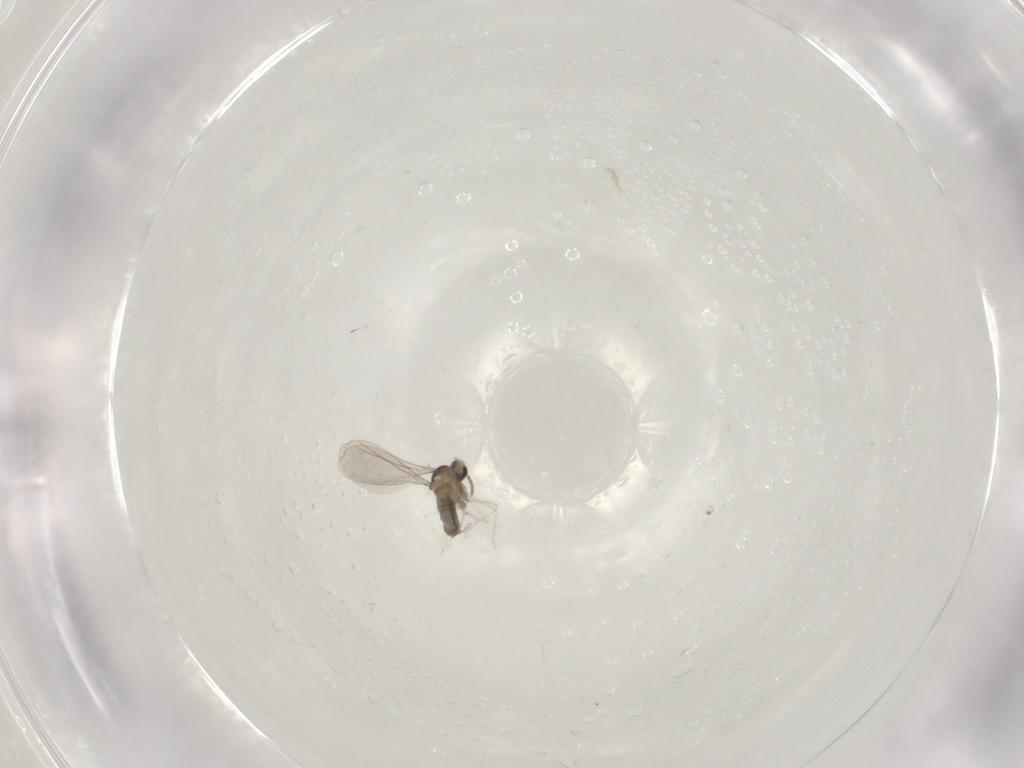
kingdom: Animalia
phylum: Arthropoda
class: Insecta
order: Diptera
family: Cecidomyiidae
